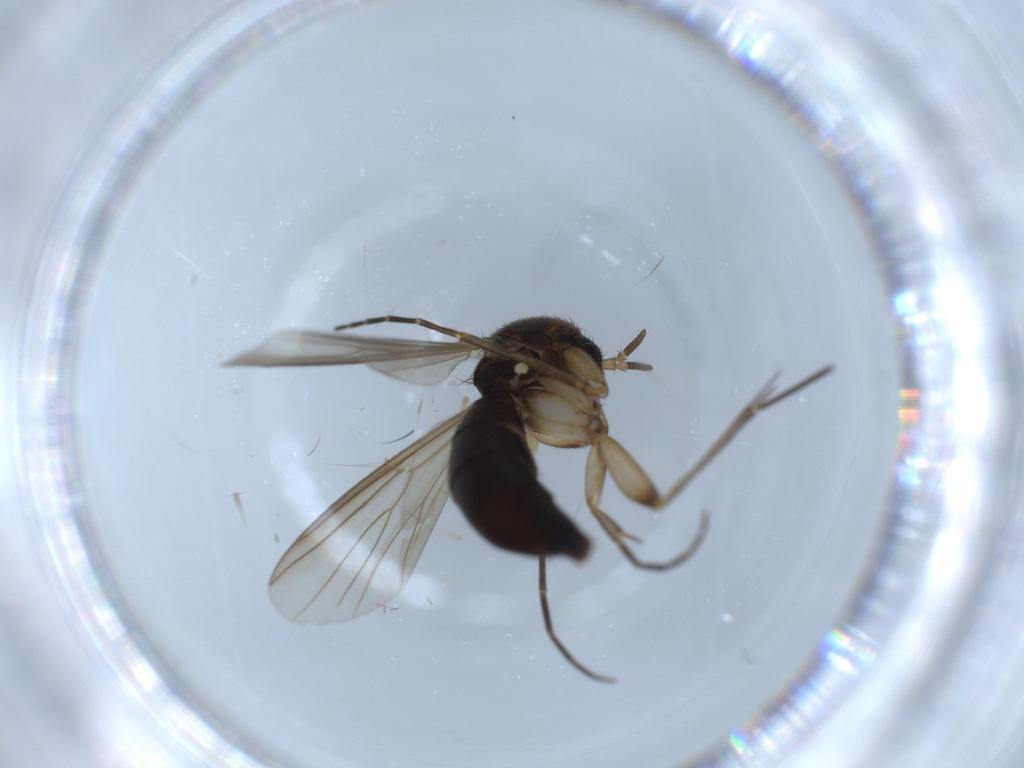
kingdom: Animalia
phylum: Arthropoda
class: Insecta
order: Diptera
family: Mycetophilidae
